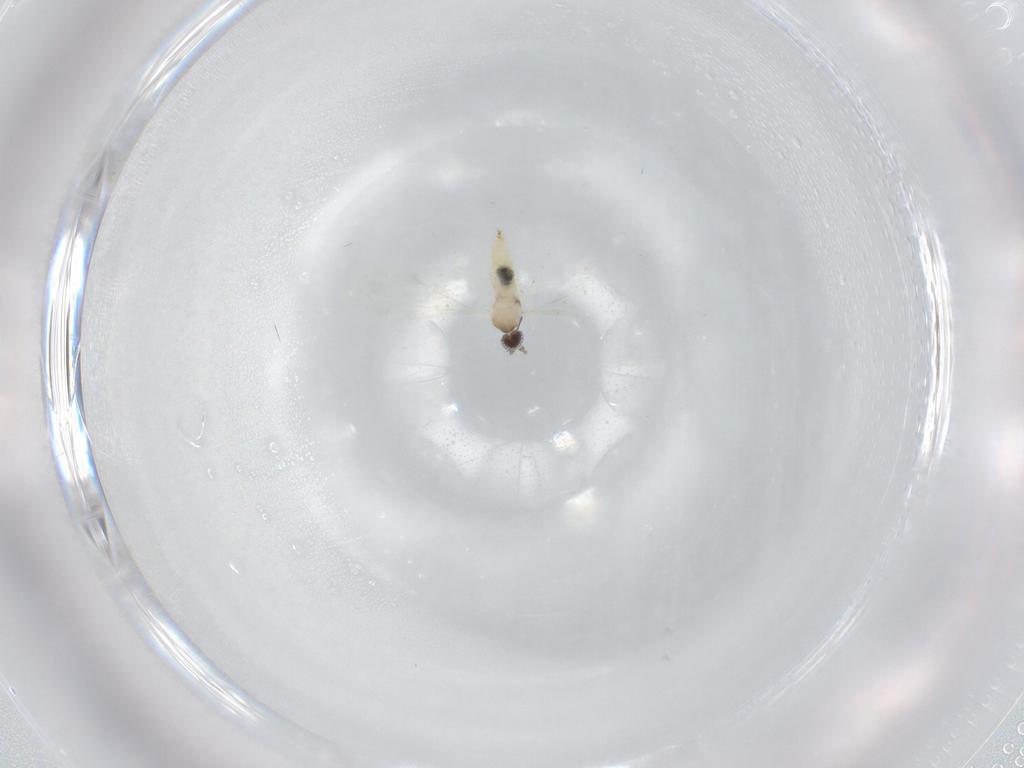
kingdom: Animalia
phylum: Arthropoda
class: Insecta
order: Diptera
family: Cecidomyiidae
